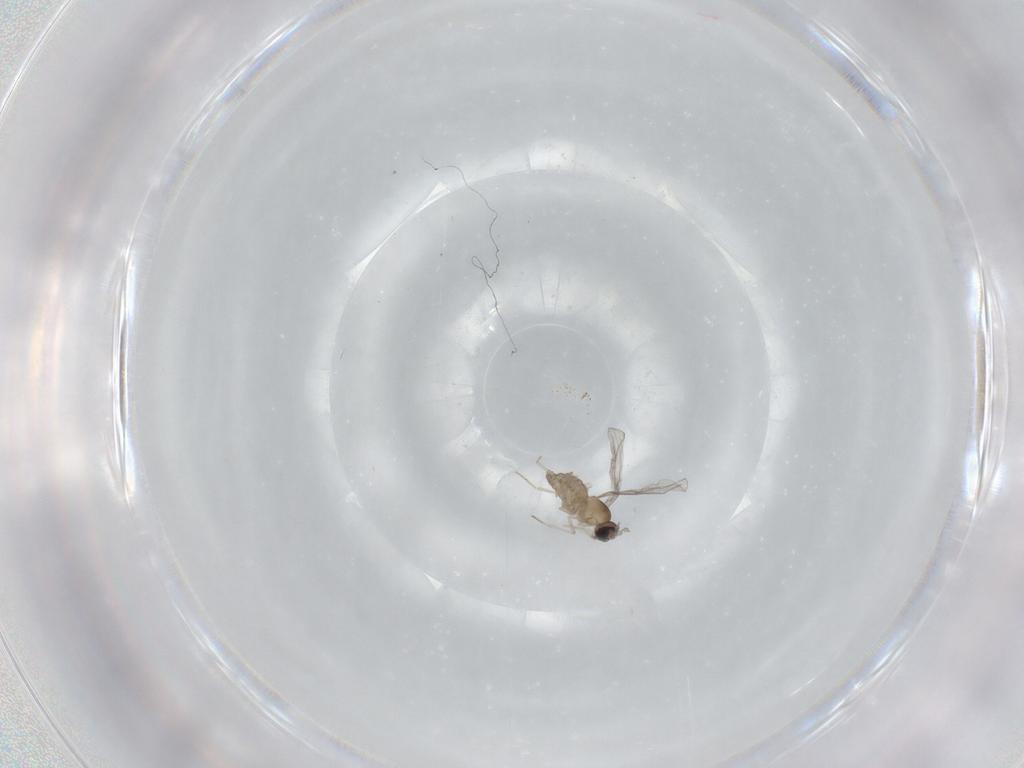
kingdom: Animalia
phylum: Arthropoda
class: Insecta
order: Diptera
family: Cecidomyiidae
